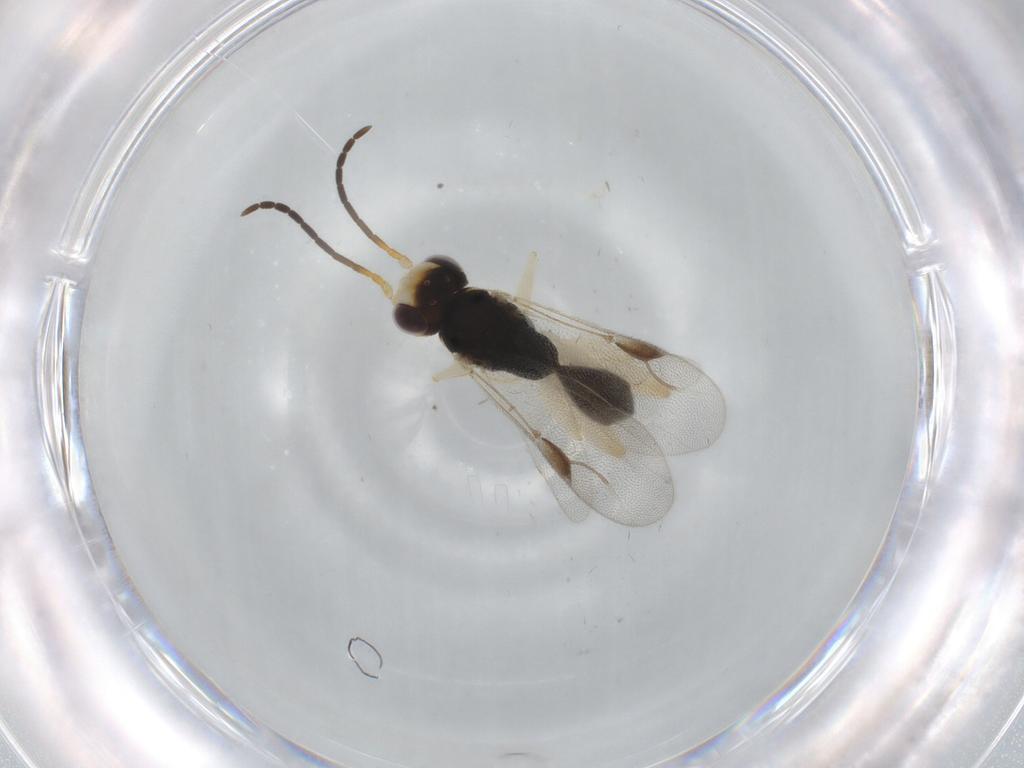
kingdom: Animalia
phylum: Arthropoda
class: Insecta
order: Hymenoptera
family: Dryinidae
